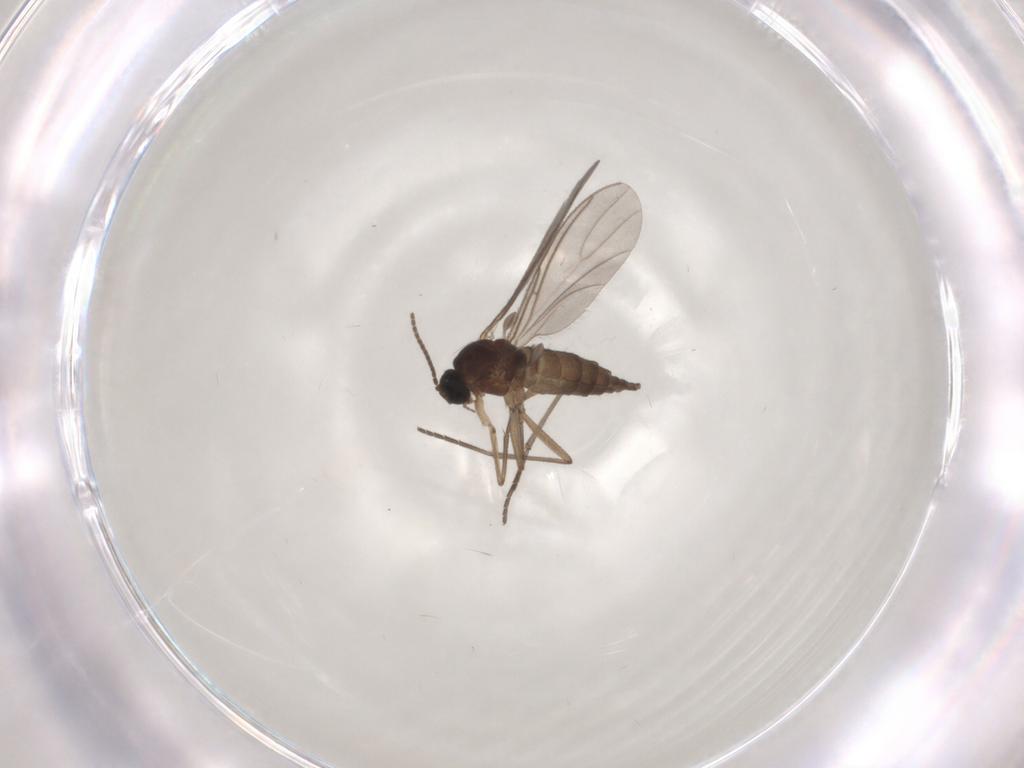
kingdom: Animalia
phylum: Arthropoda
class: Insecta
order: Diptera
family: Sciaridae
